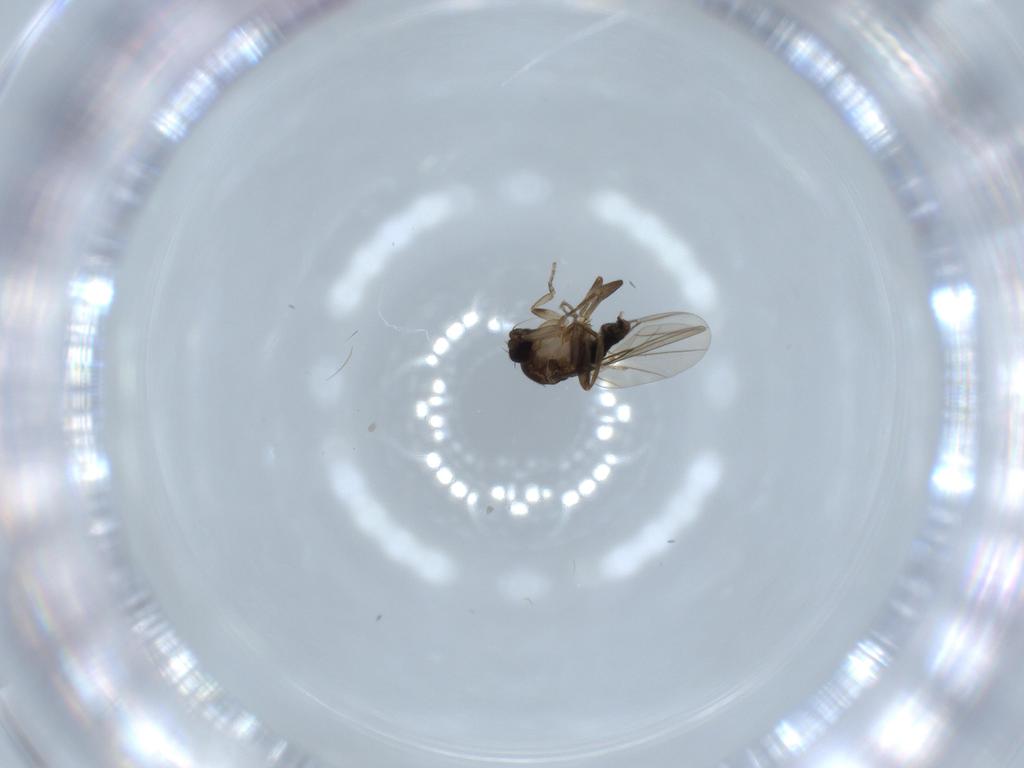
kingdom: Animalia
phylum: Arthropoda
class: Insecta
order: Diptera
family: Phoridae
